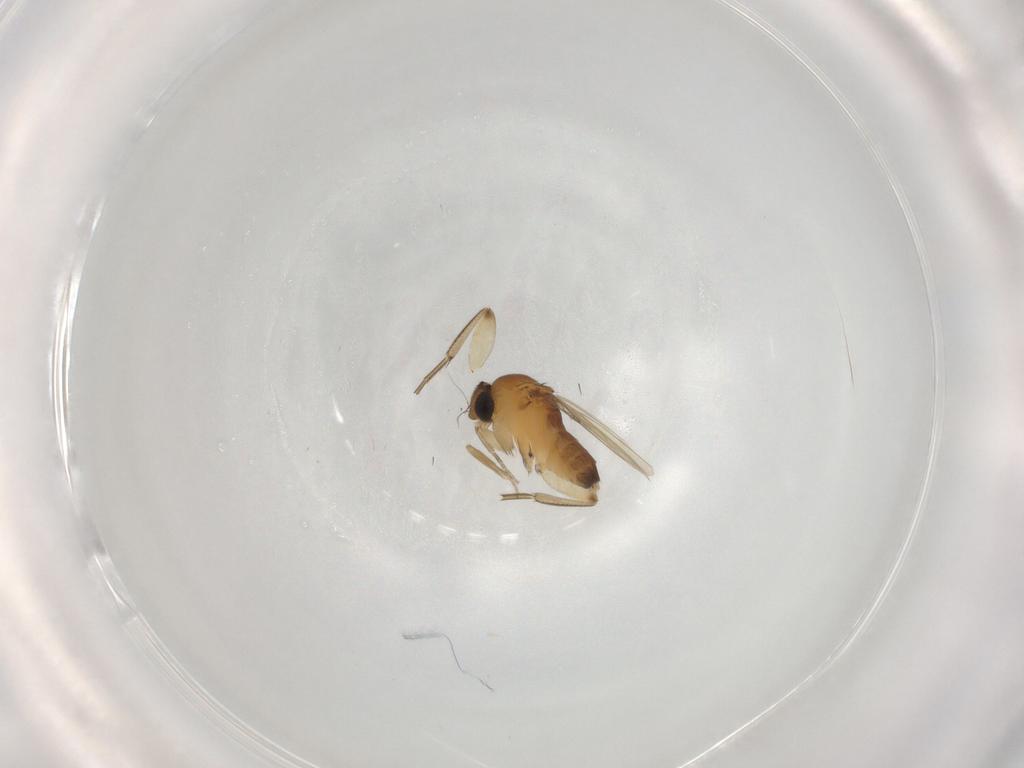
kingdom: Animalia
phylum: Arthropoda
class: Insecta
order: Diptera
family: Phoridae
